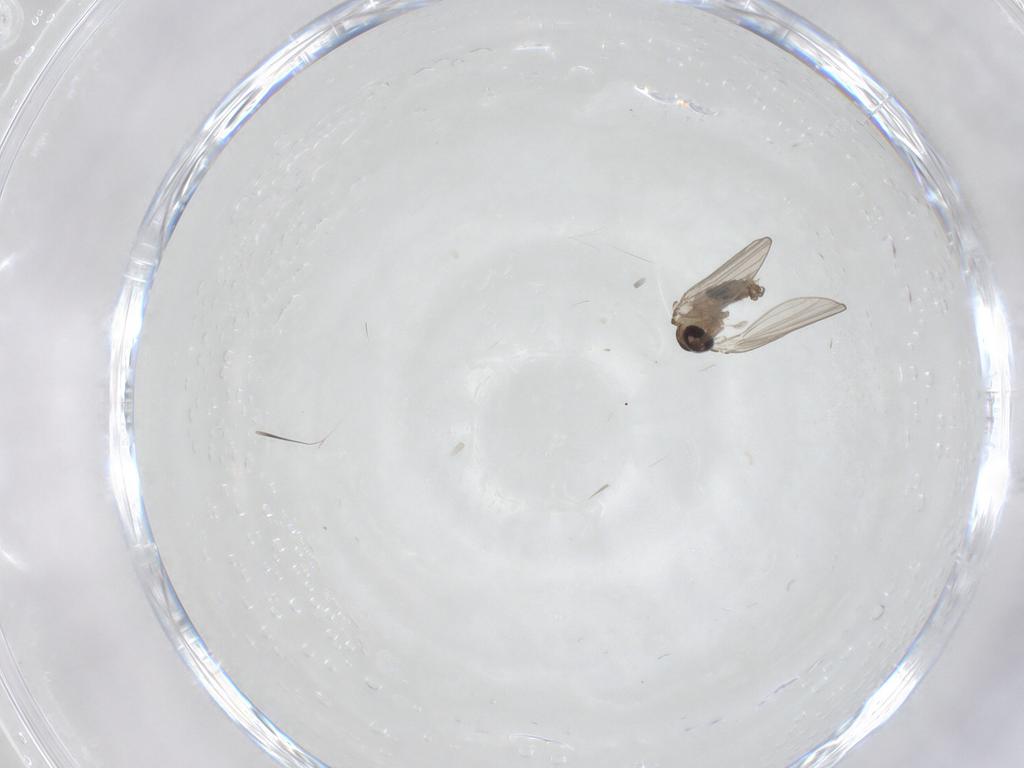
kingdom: Animalia
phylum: Arthropoda
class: Insecta
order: Diptera
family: Psychodidae
